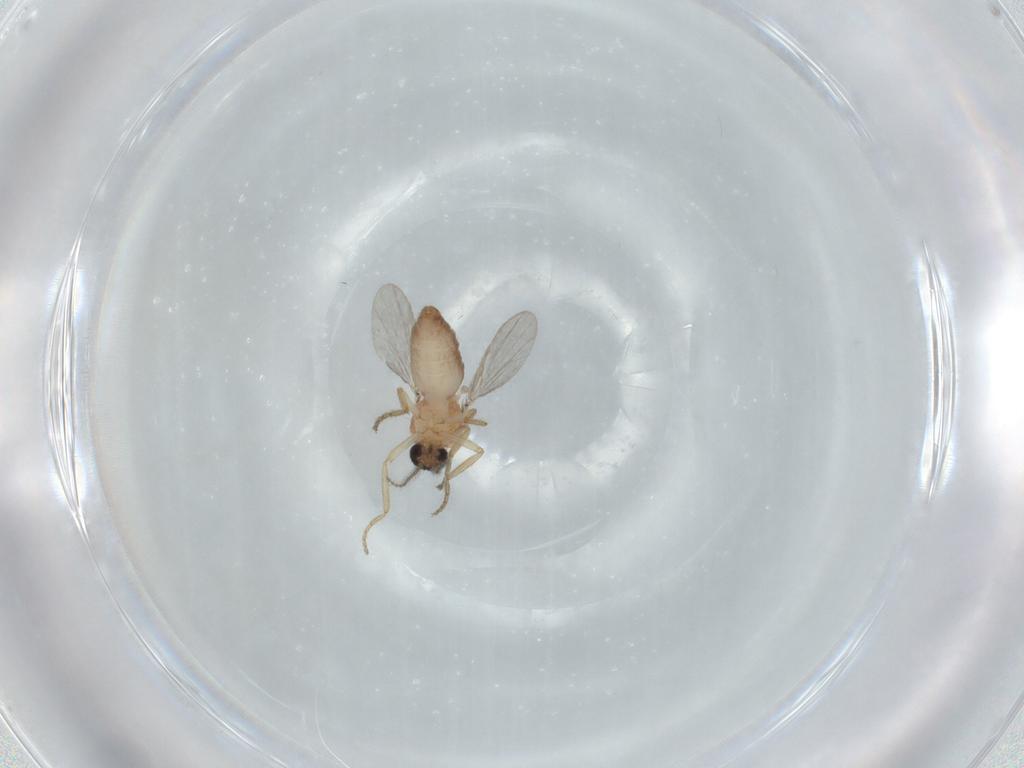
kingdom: Animalia
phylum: Arthropoda
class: Insecta
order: Diptera
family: Ceratopogonidae
